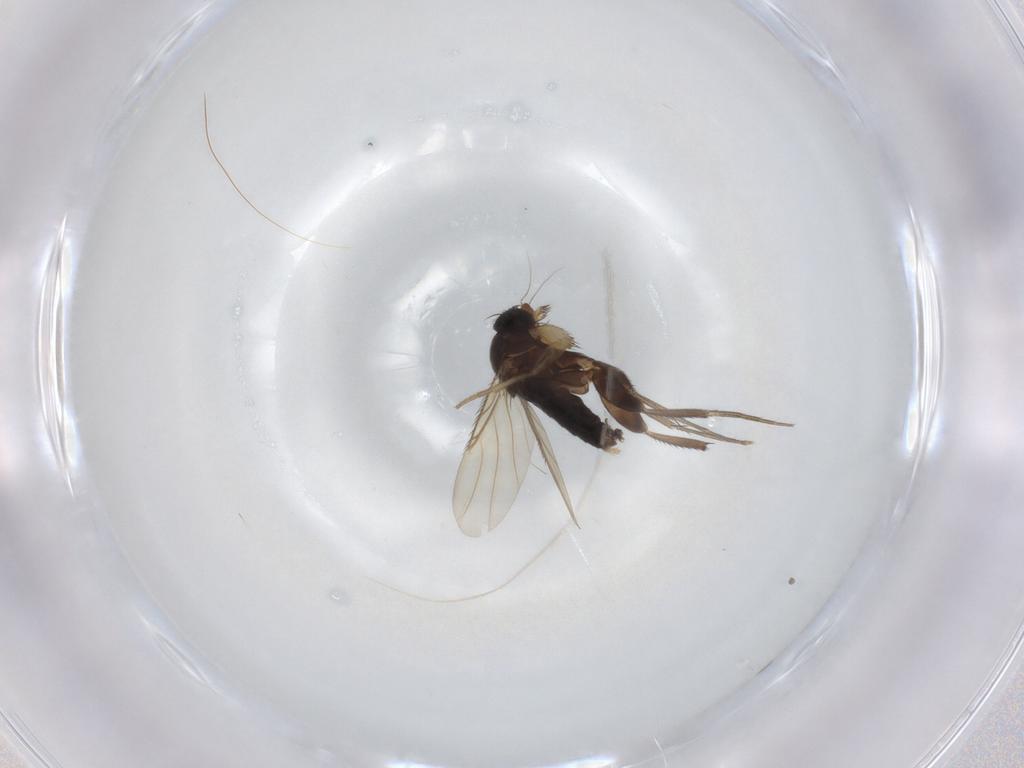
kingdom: Animalia
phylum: Arthropoda
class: Insecta
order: Diptera
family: Phoridae
